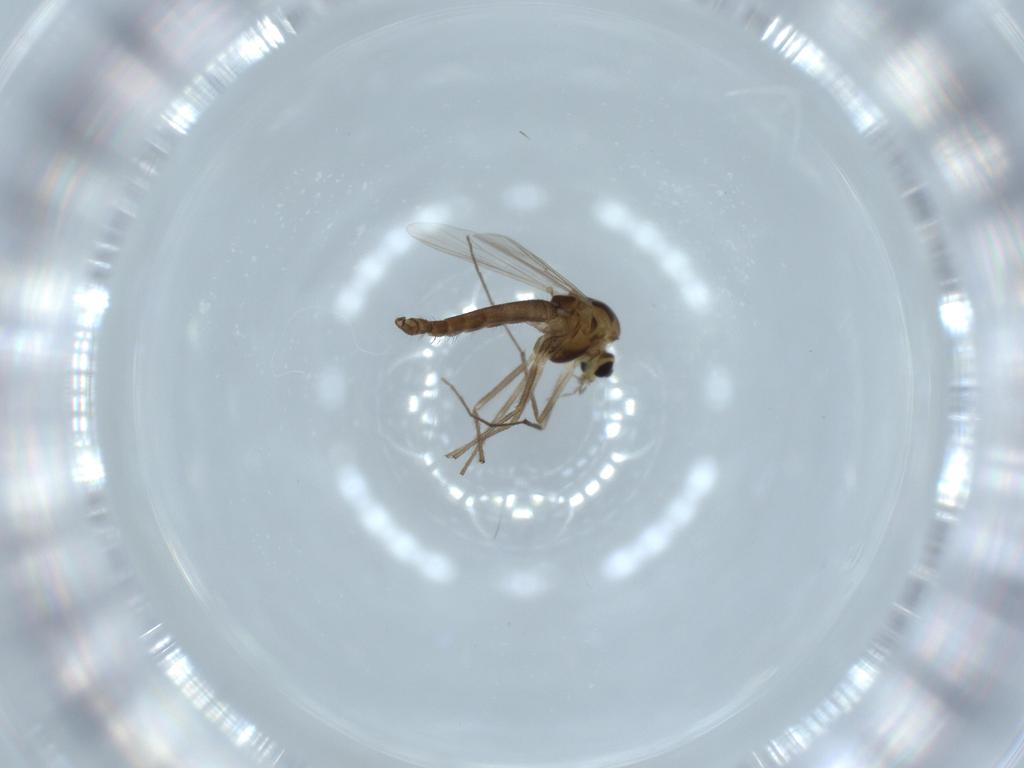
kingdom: Animalia
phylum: Arthropoda
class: Insecta
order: Diptera
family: Chironomidae
